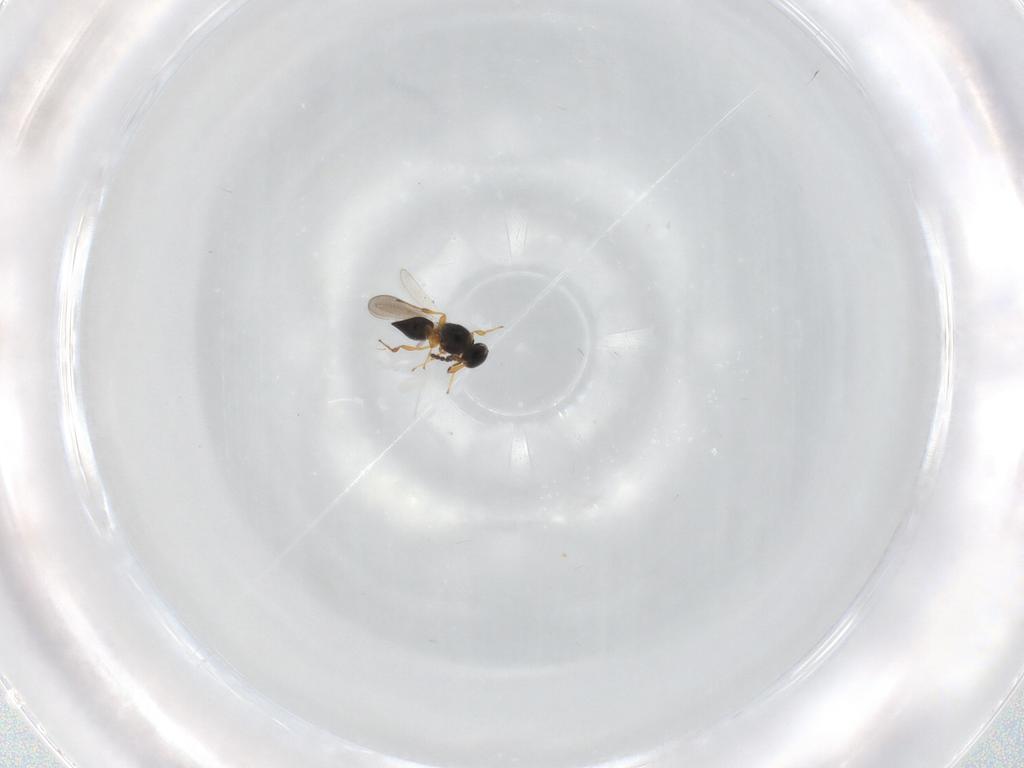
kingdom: Animalia
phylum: Arthropoda
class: Insecta
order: Hymenoptera
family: Platygastridae
